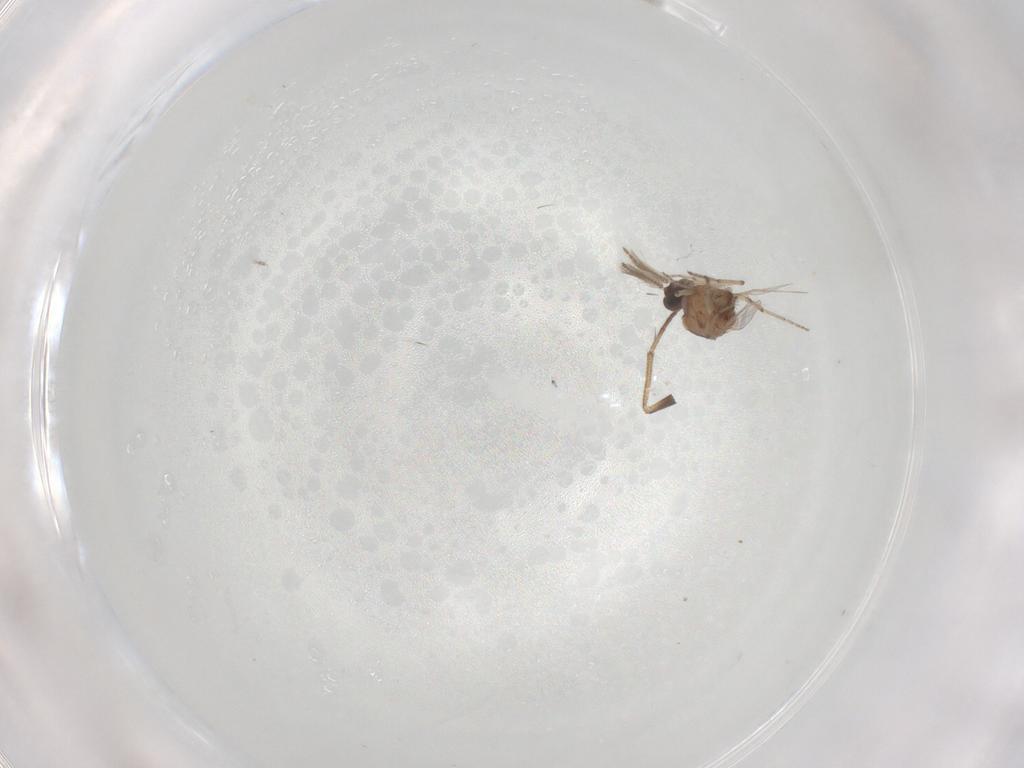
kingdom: Animalia
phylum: Arthropoda
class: Insecta
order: Diptera
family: Ceratopogonidae
